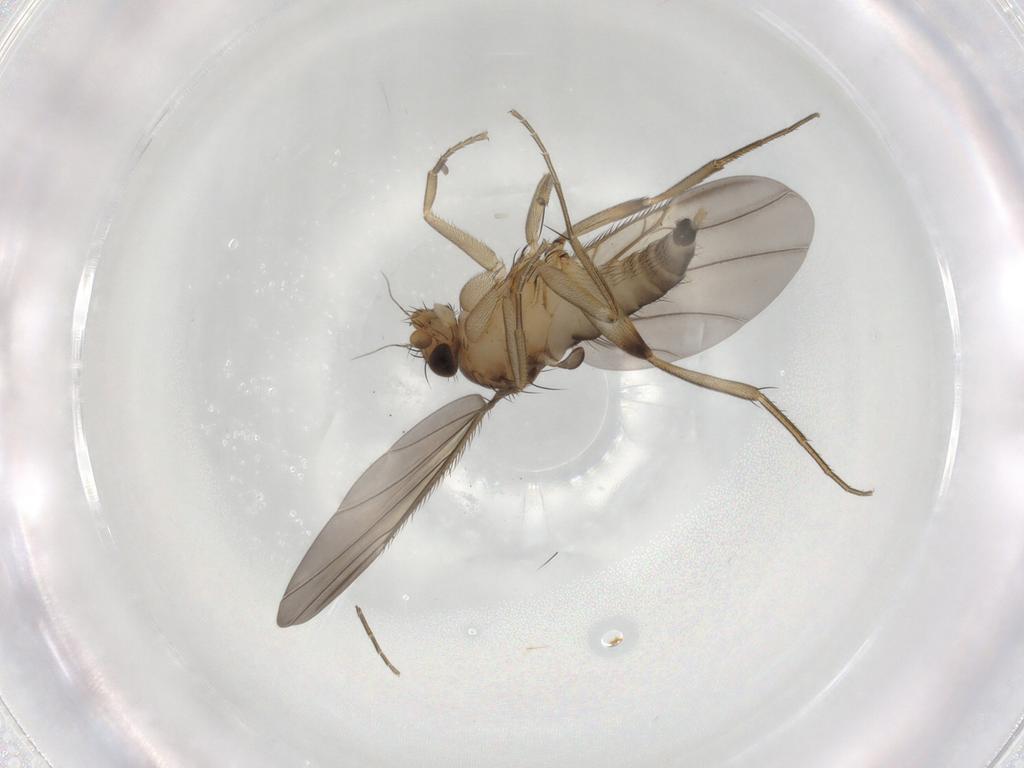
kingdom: Animalia
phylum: Arthropoda
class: Insecta
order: Diptera
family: Phoridae
